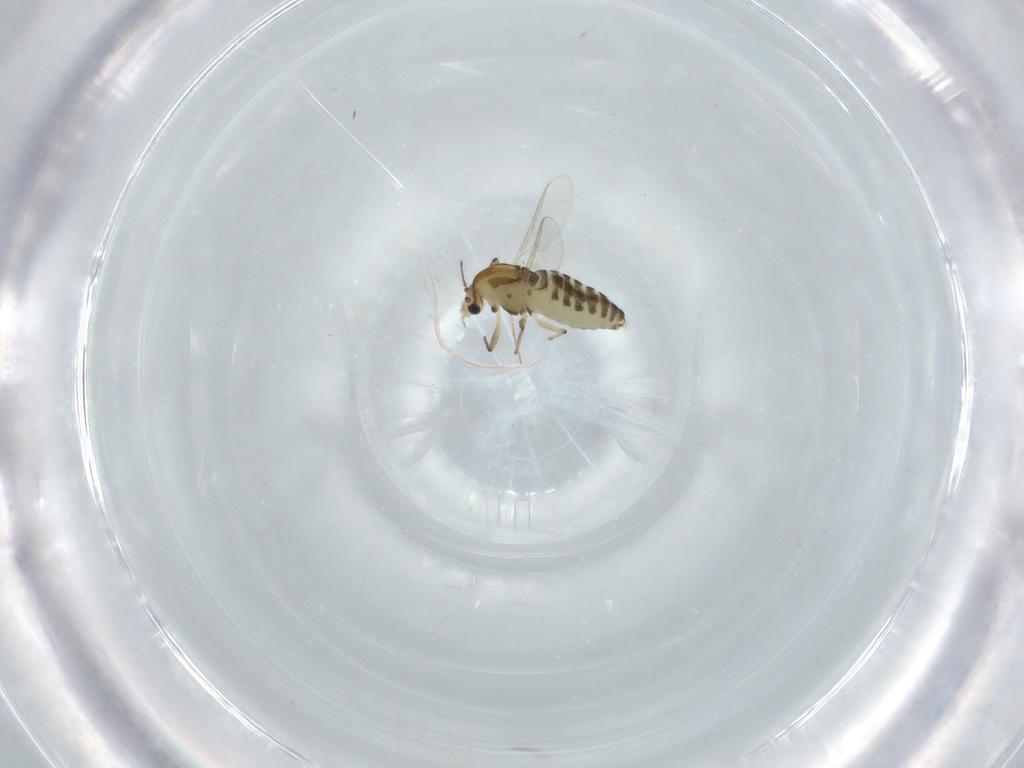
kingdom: Animalia
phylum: Arthropoda
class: Insecta
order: Diptera
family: Chironomidae
